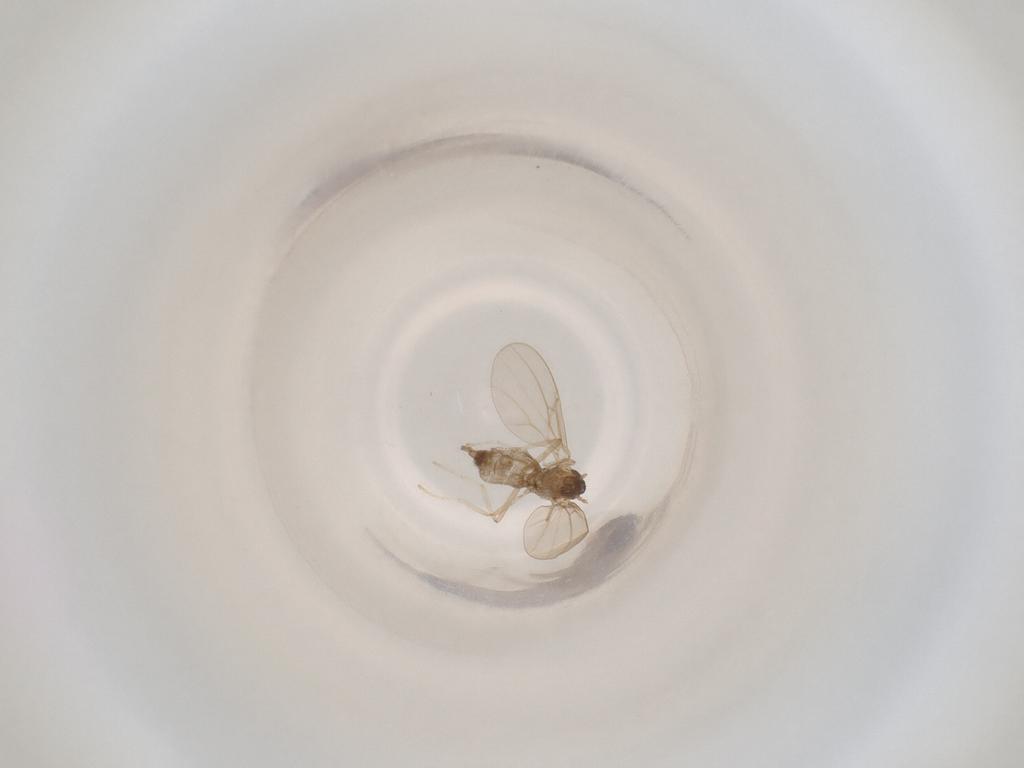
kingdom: Animalia
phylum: Arthropoda
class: Insecta
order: Diptera
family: Cecidomyiidae
